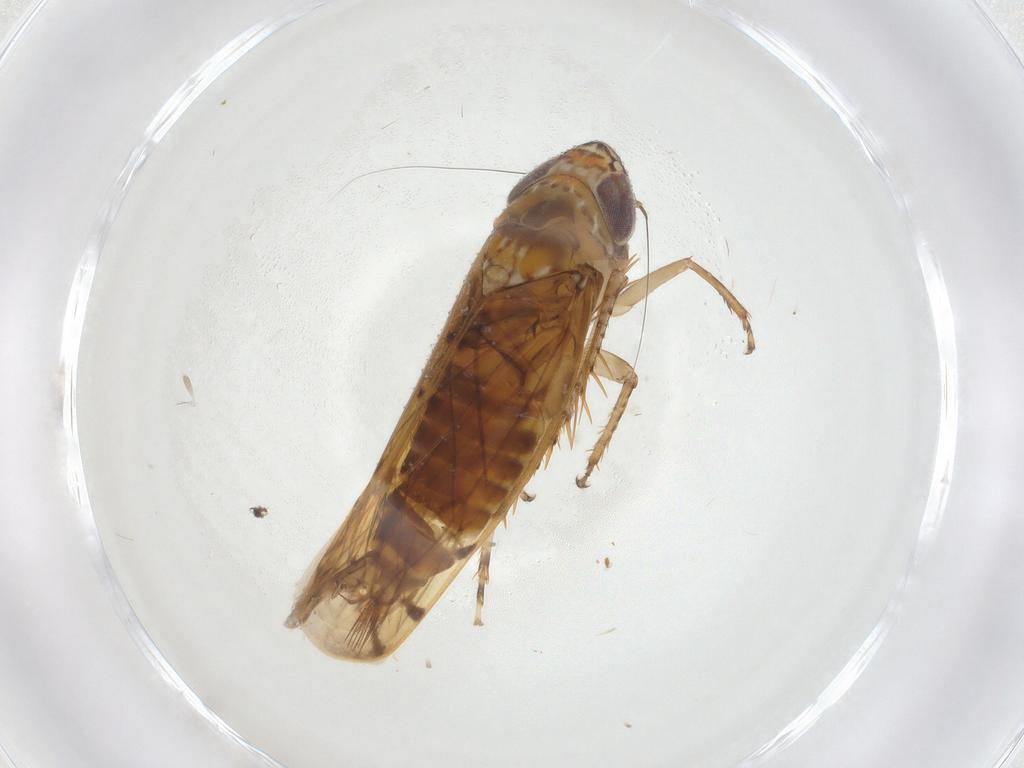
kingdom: Animalia
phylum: Arthropoda
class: Insecta
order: Hemiptera
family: Cicadellidae
